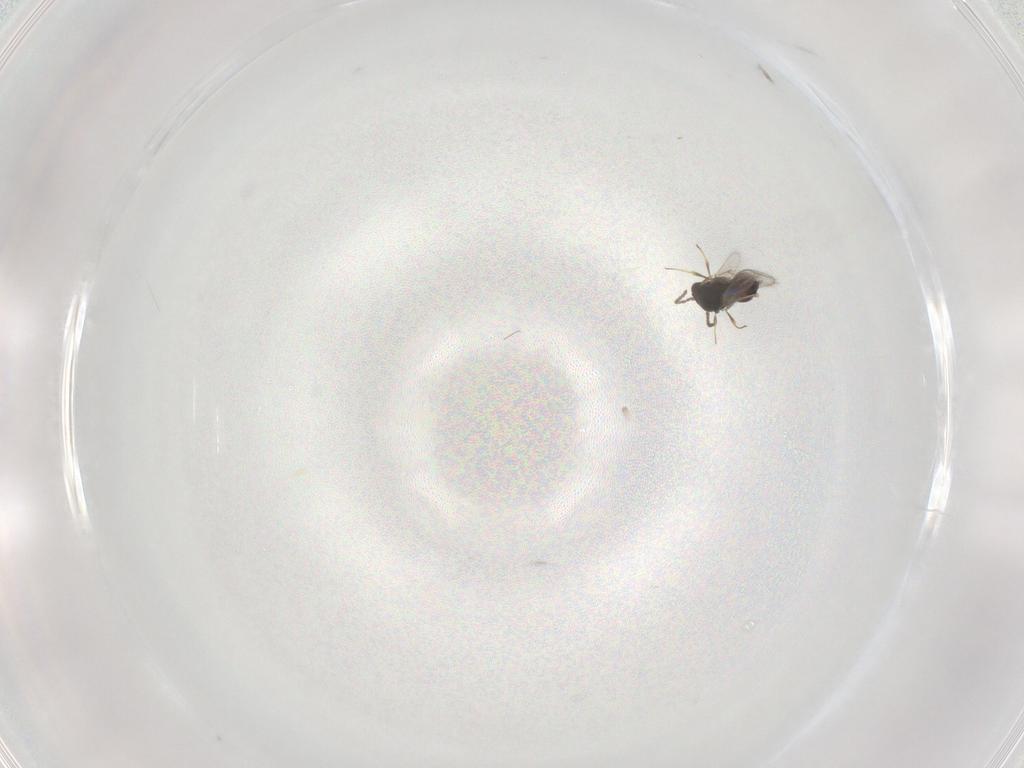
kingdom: Animalia
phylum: Arthropoda
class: Insecta
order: Hymenoptera
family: Scelionidae
